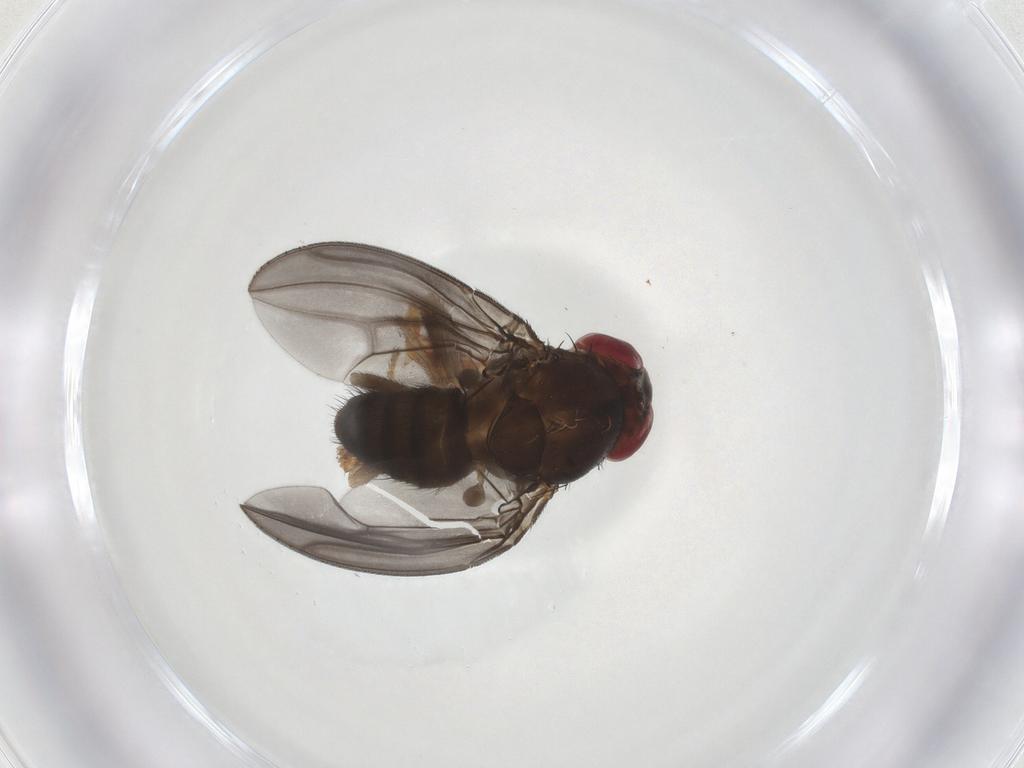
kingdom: Animalia
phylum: Arthropoda
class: Insecta
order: Diptera
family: Drosophilidae
